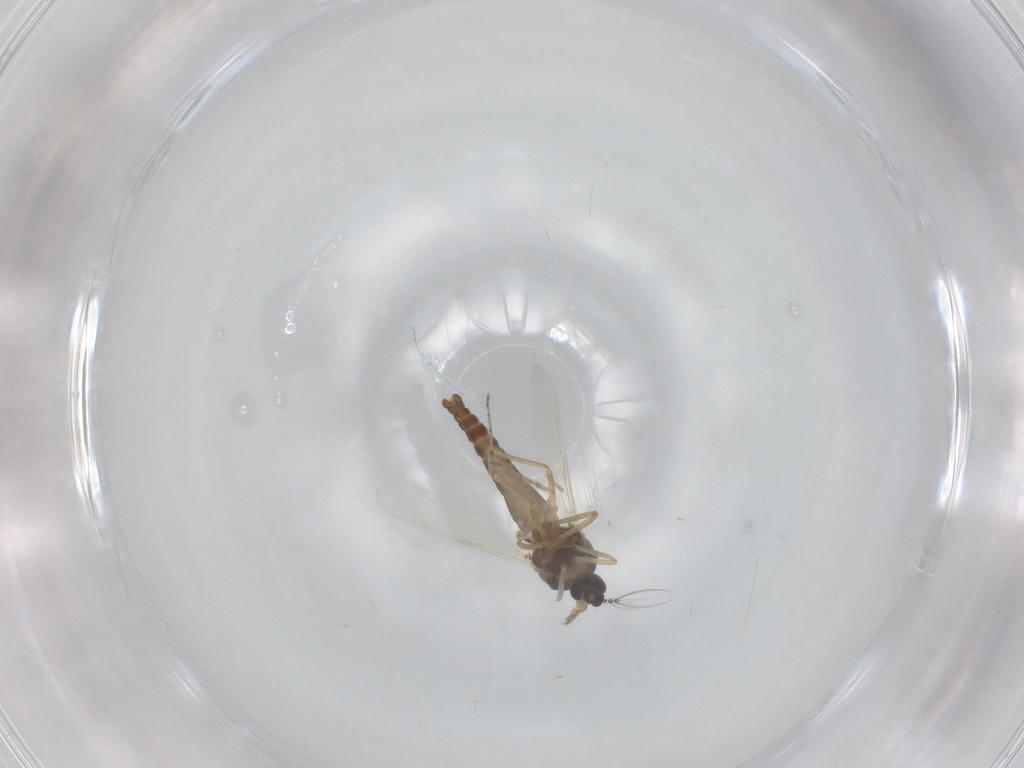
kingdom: Animalia
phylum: Arthropoda
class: Insecta
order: Diptera
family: Ceratopogonidae
